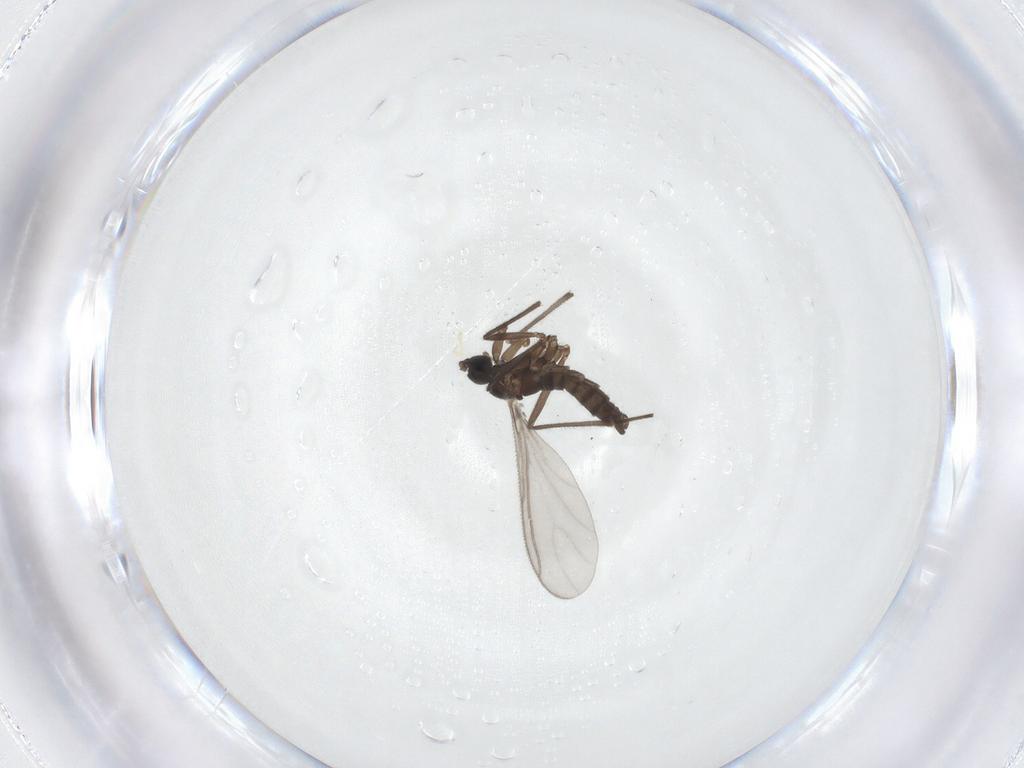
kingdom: Animalia
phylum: Arthropoda
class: Insecta
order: Diptera
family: Sciaridae
